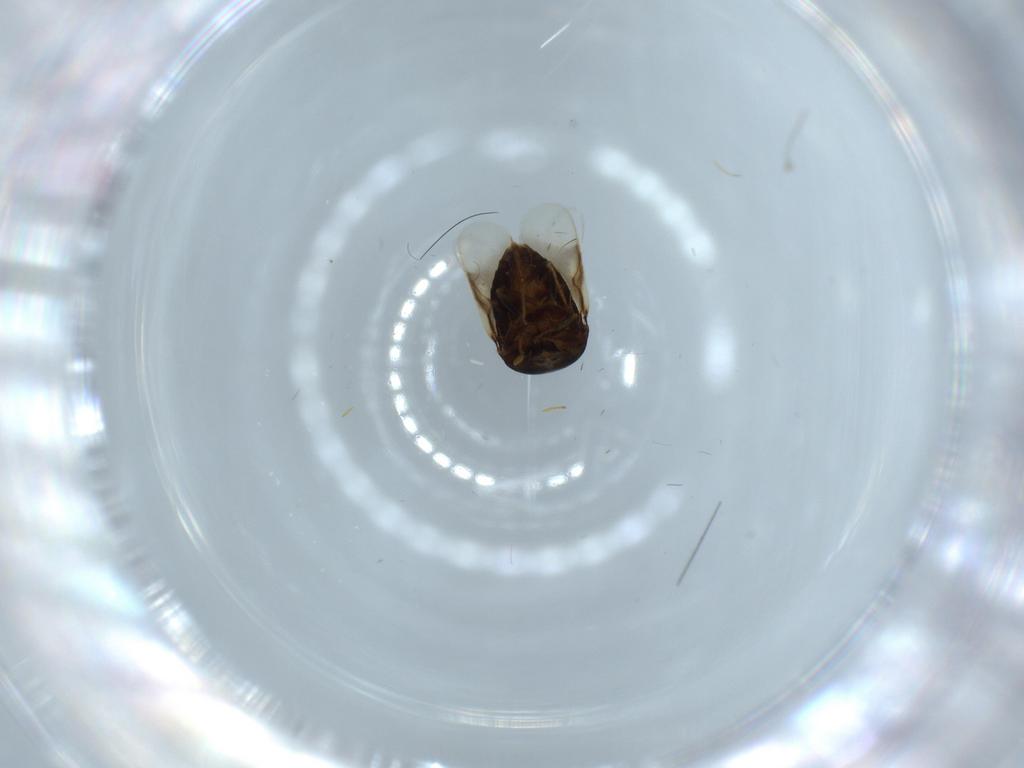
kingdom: Animalia
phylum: Arthropoda
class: Insecta
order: Hymenoptera
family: Signiphoridae
